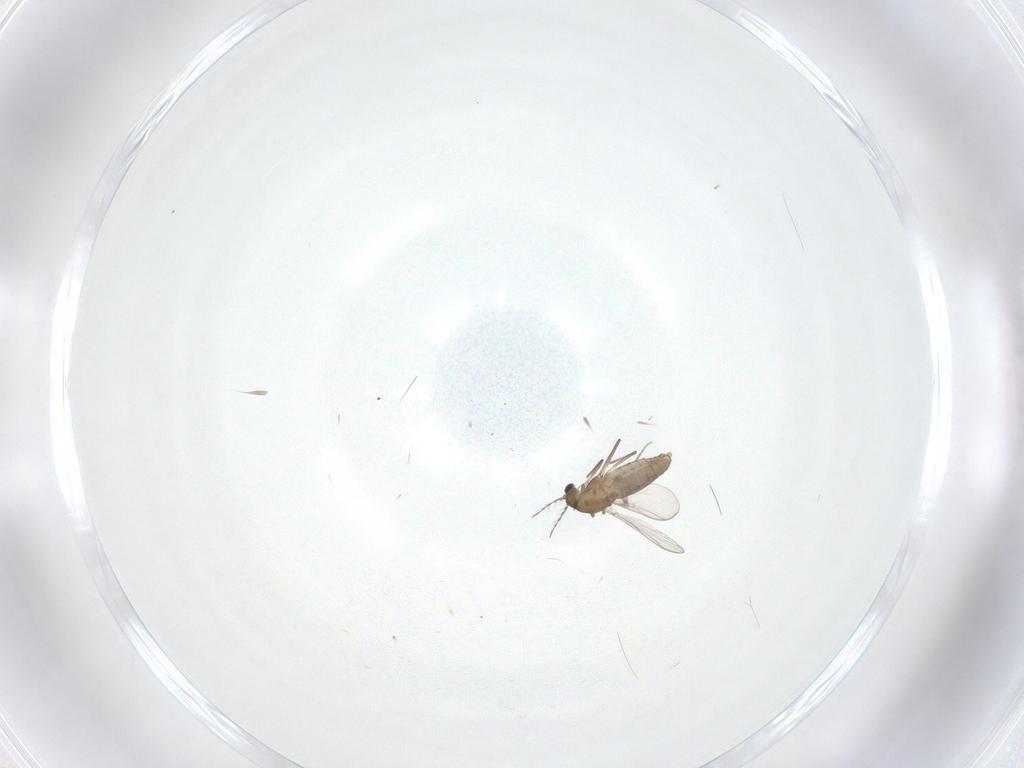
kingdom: Animalia
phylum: Arthropoda
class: Insecta
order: Diptera
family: Chironomidae
